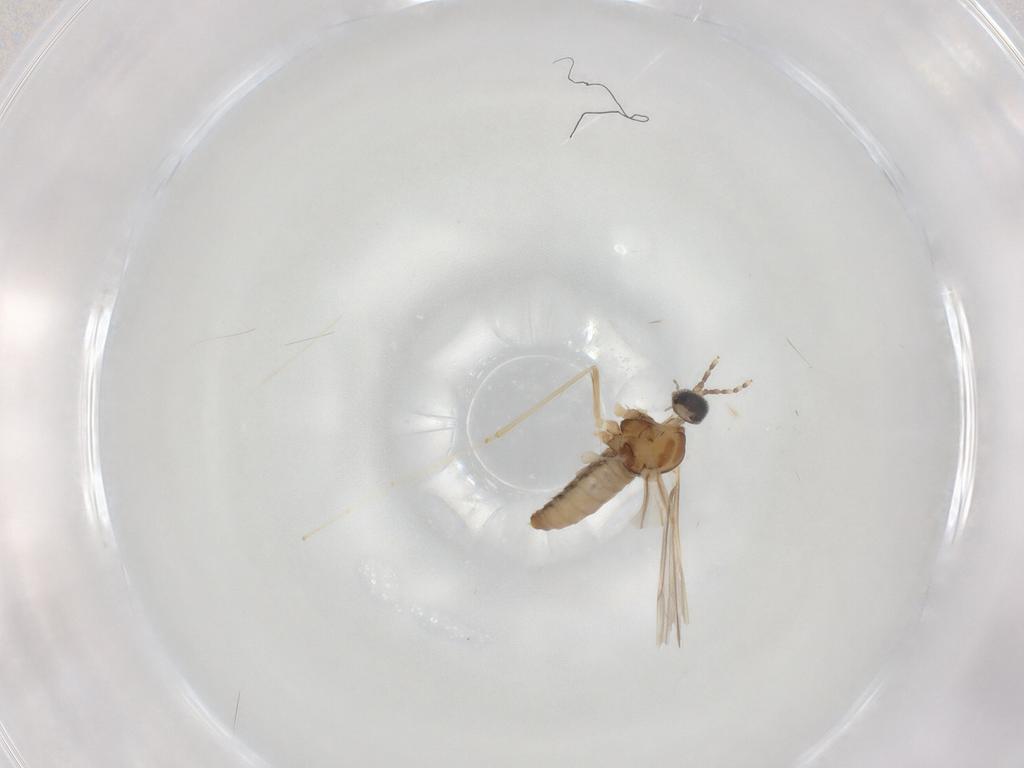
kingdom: Animalia
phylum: Arthropoda
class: Insecta
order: Diptera
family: Cecidomyiidae
